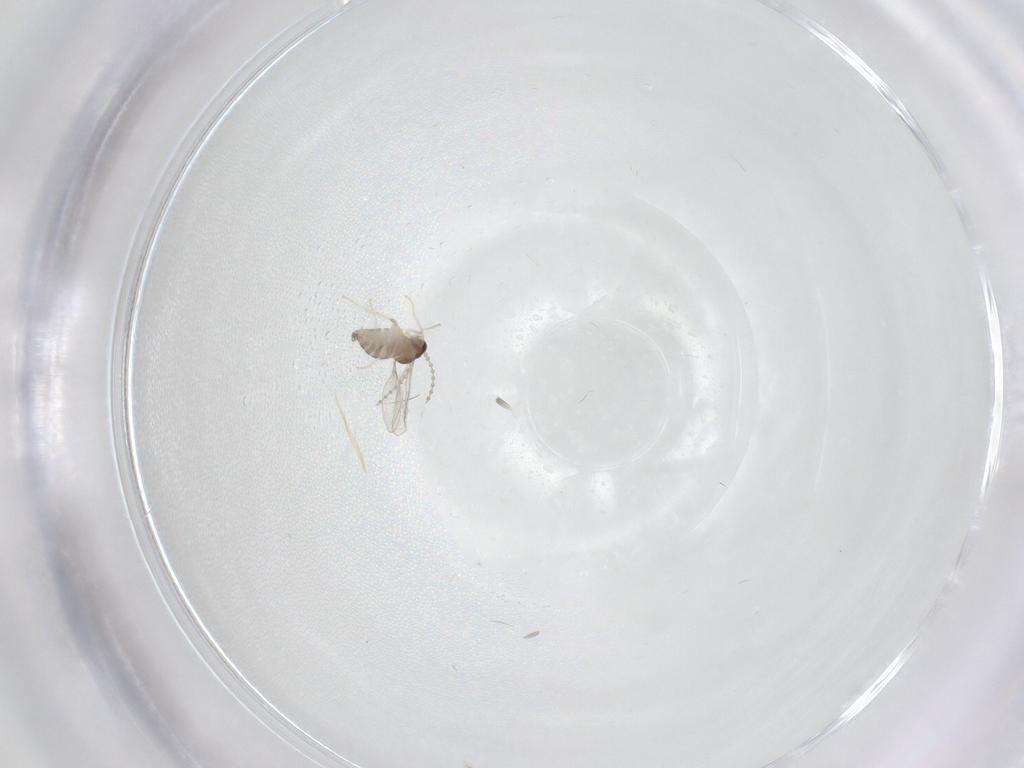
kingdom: Animalia
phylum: Arthropoda
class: Insecta
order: Diptera
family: Cecidomyiidae
